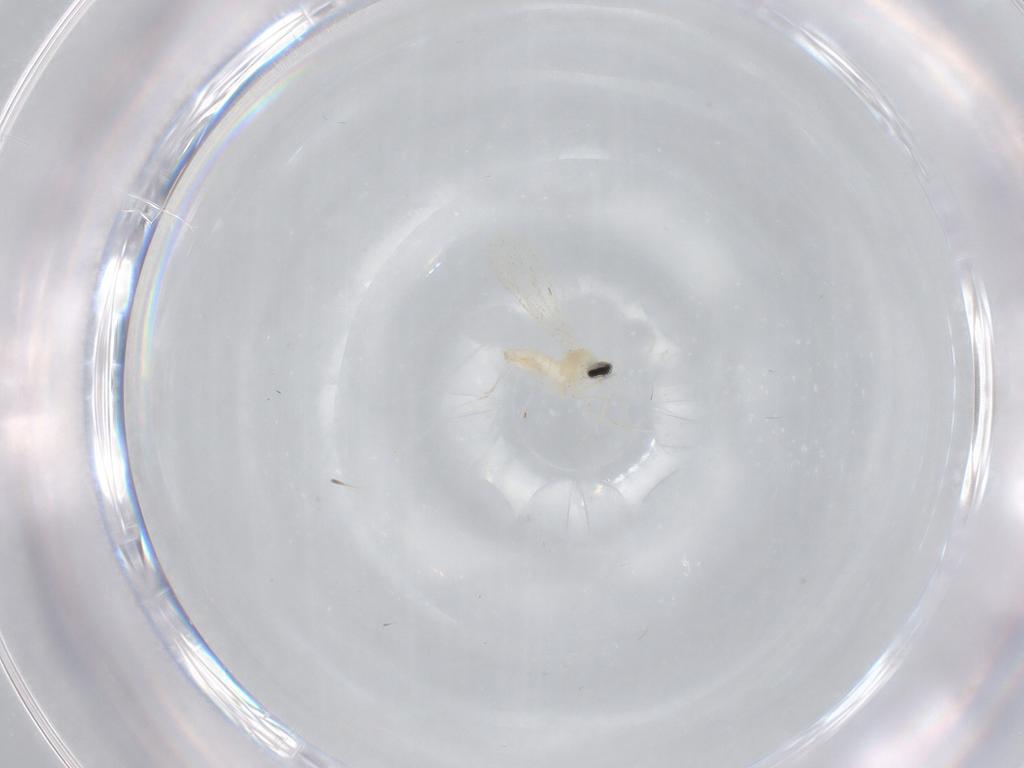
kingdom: Animalia
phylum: Arthropoda
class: Insecta
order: Diptera
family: Cecidomyiidae
